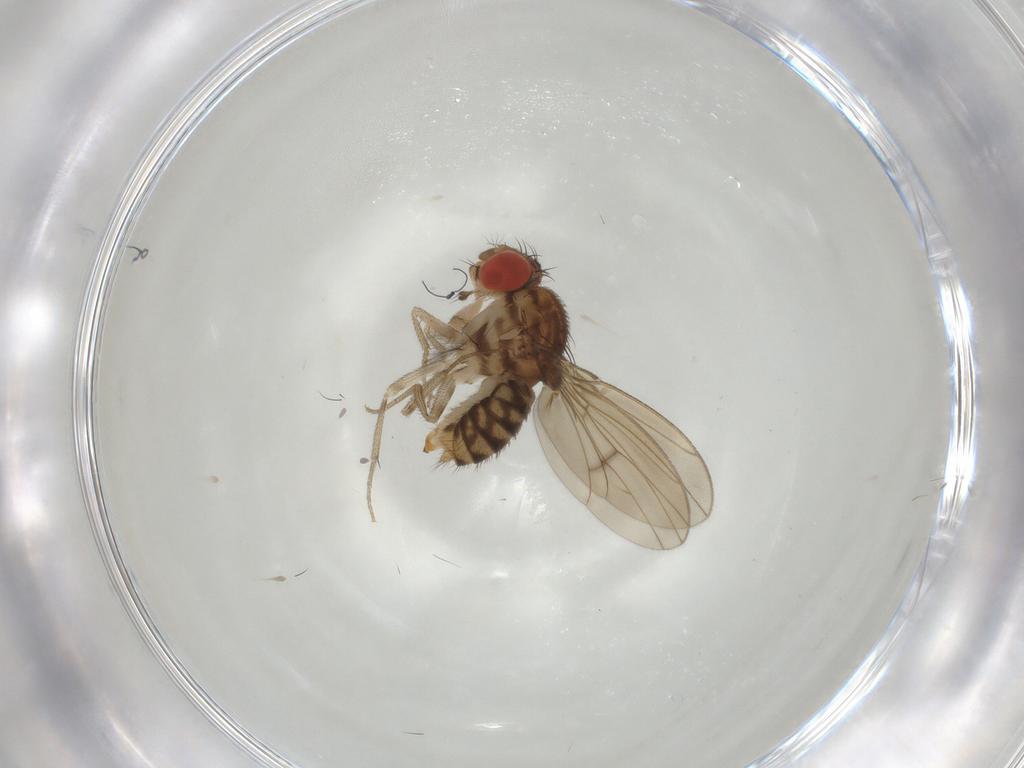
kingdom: Animalia
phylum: Arthropoda
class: Insecta
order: Diptera
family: Drosophilidae
